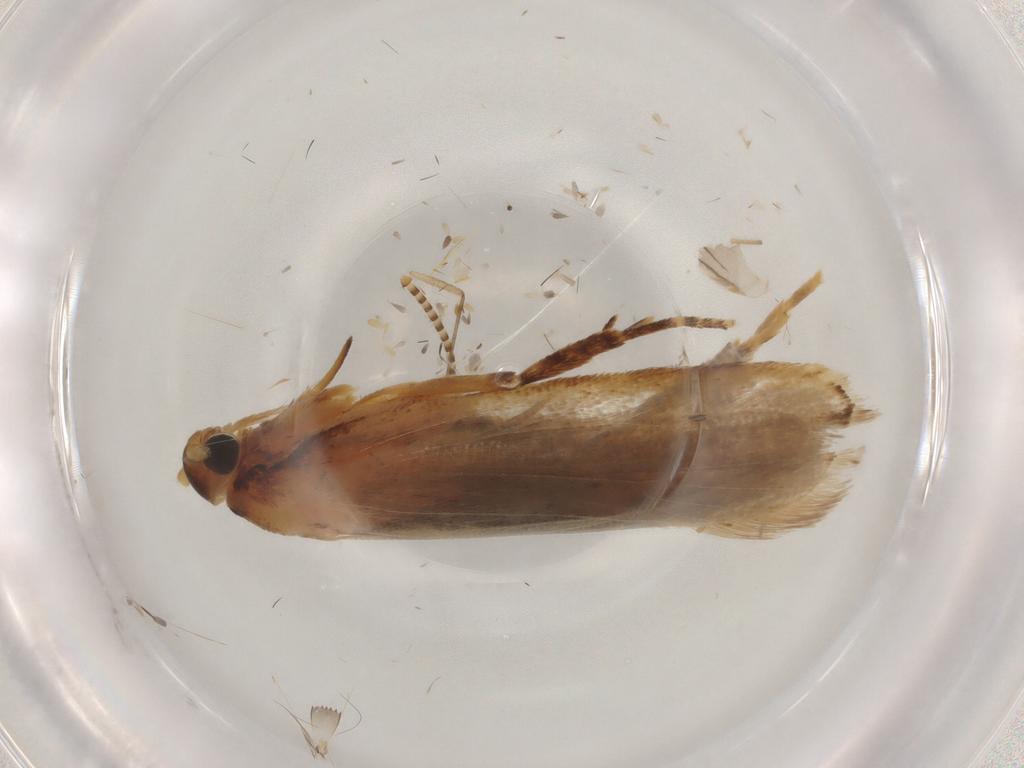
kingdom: Animalia
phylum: Arthropoda
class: Insecta
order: Lepidoptera
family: Lecithoceridae
